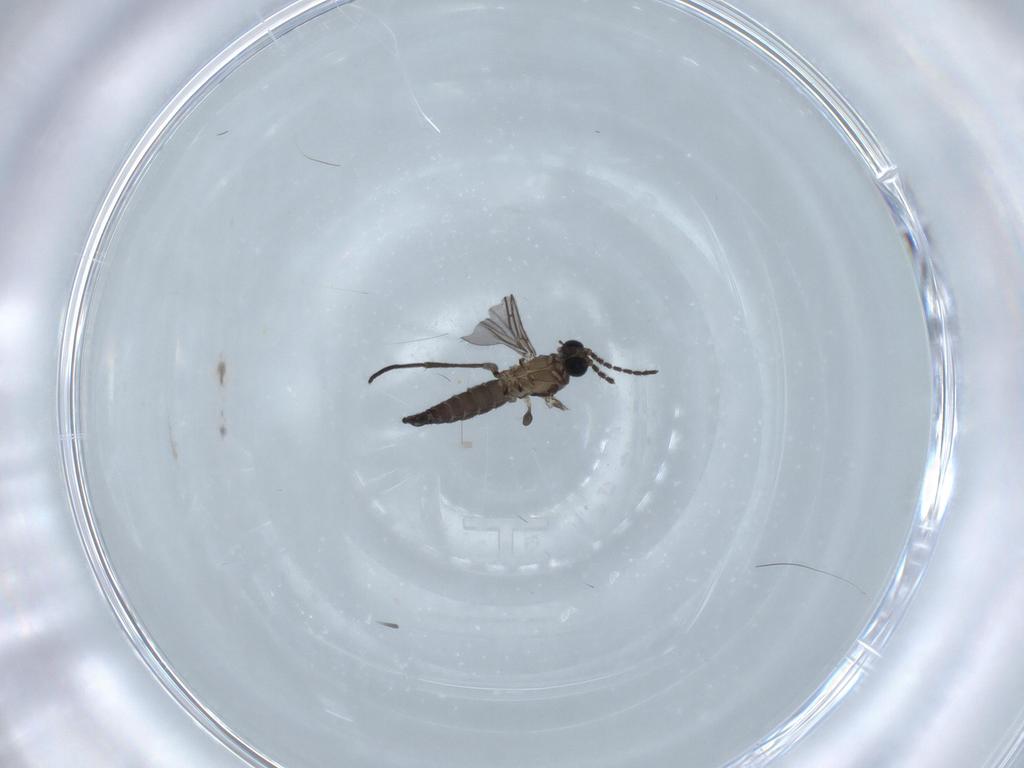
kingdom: Animalia
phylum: Arthropoda
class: Insecta
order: Diptera
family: Sciaridae
